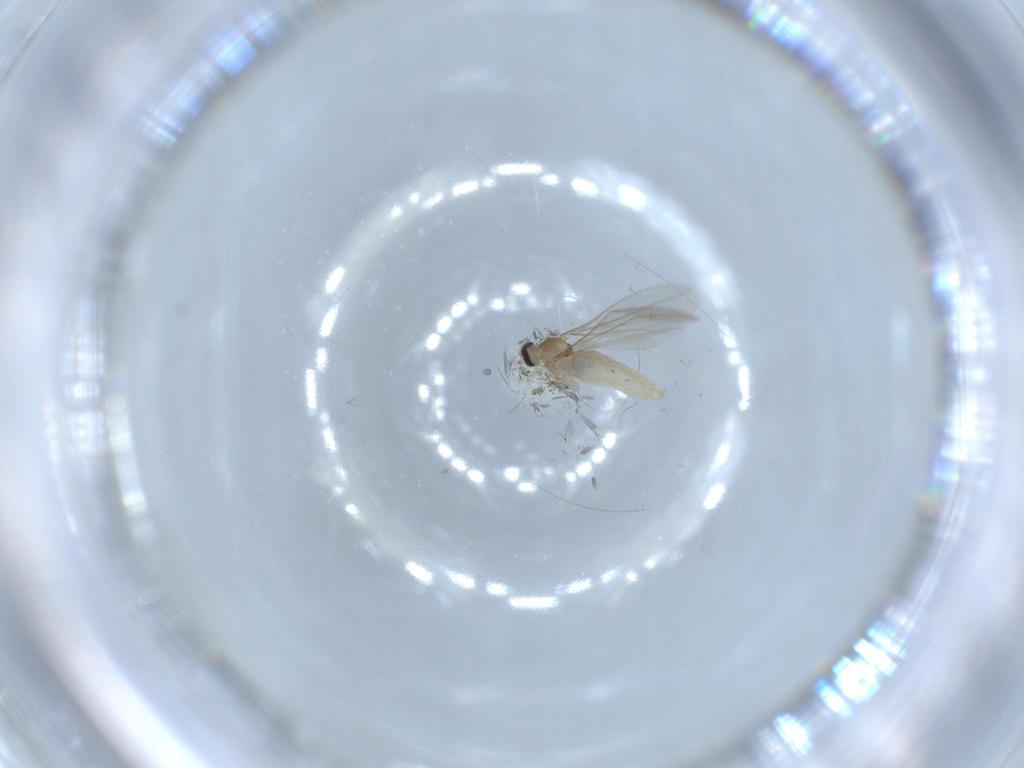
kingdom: Animalia
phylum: Arthropoda
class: Insecta
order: Diptera
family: Cecidomyiidae
